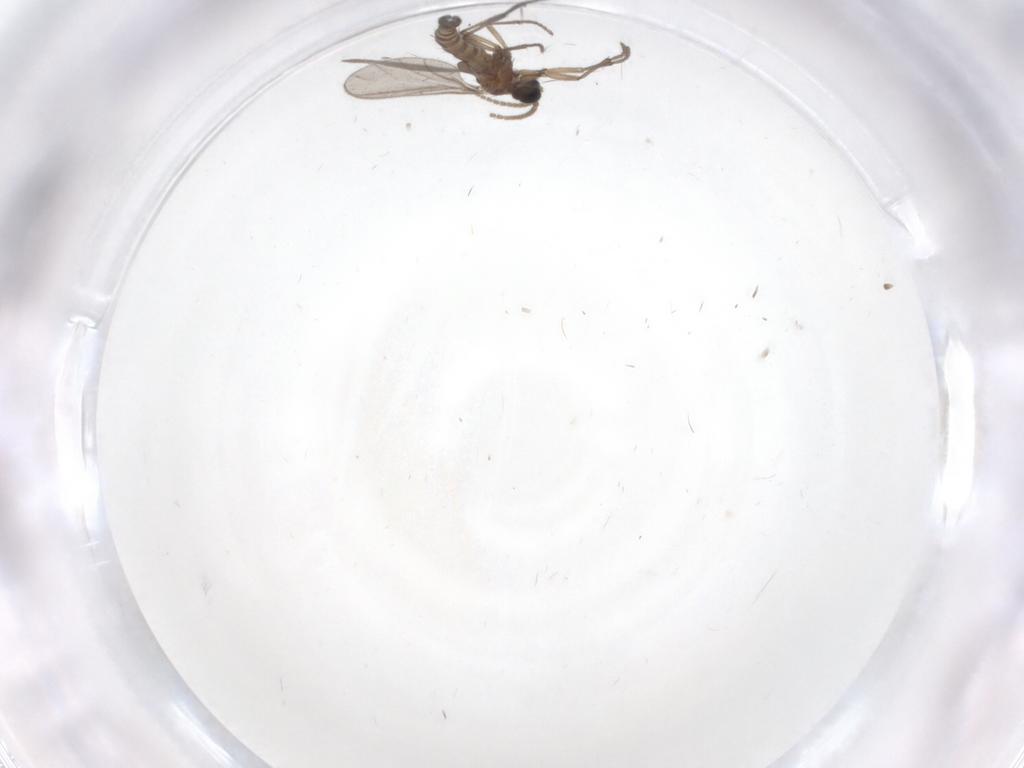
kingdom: Animalia
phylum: Arthropoda
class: Insecta
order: Diptera
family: Sciaridae
